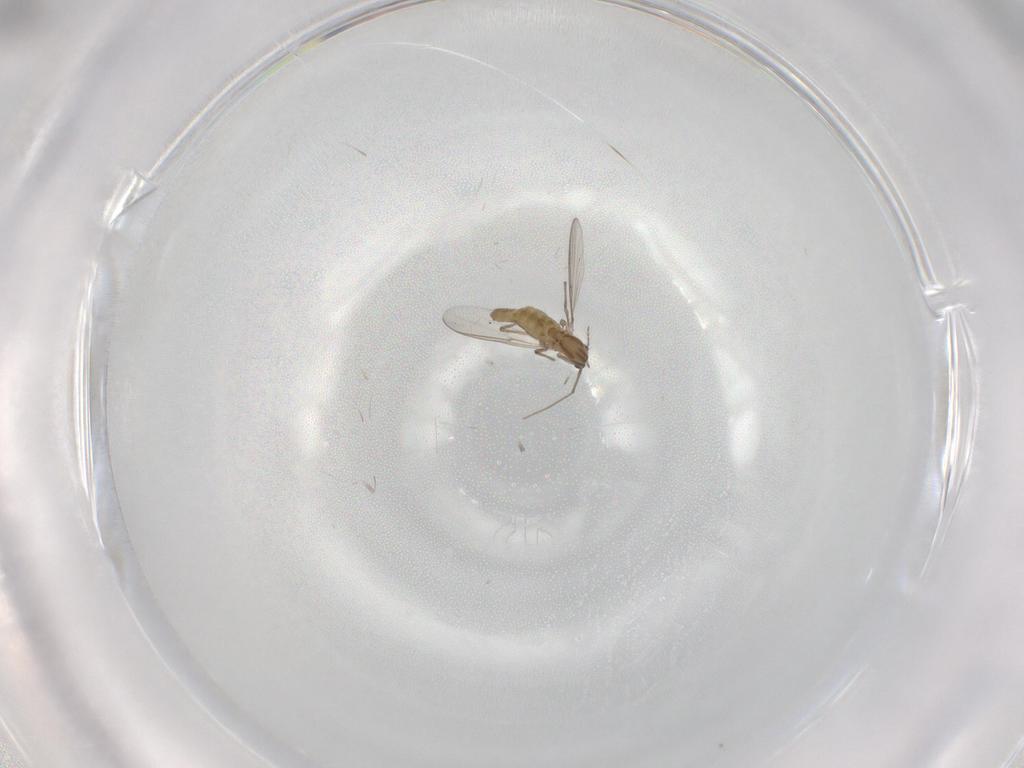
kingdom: Animalia
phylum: Arthropoda
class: Insecta
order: Diptera
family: Chironomidae
